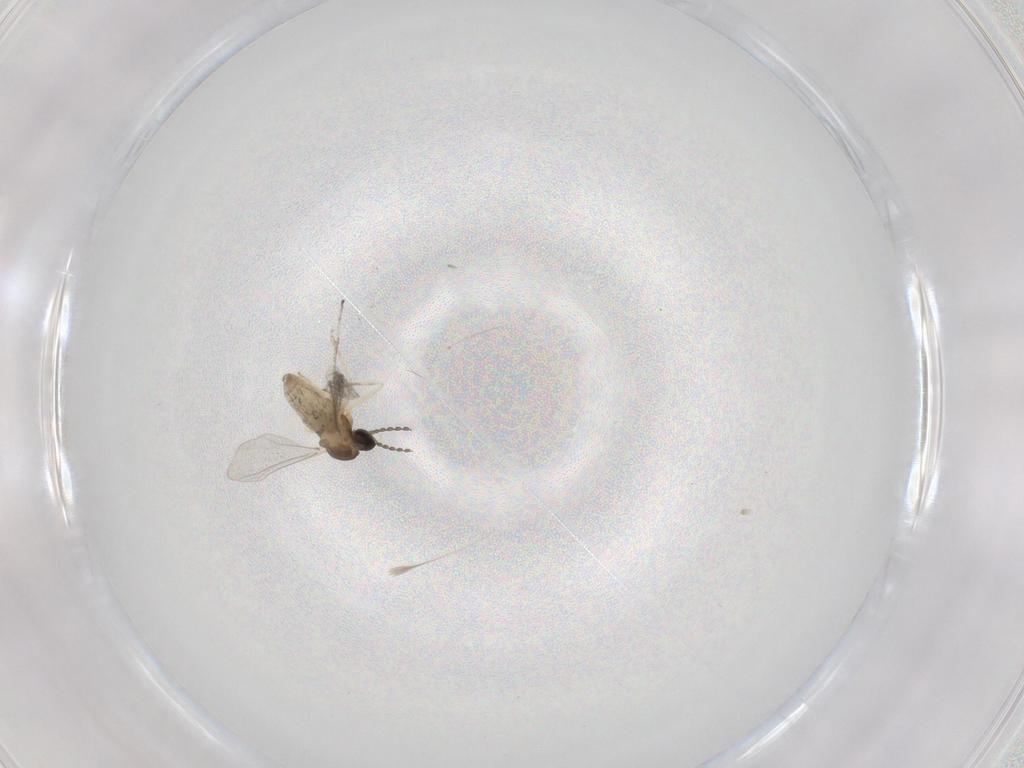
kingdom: Animalia
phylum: Arthropoda
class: Insecta
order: Diptera
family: Cecidomyiidae
